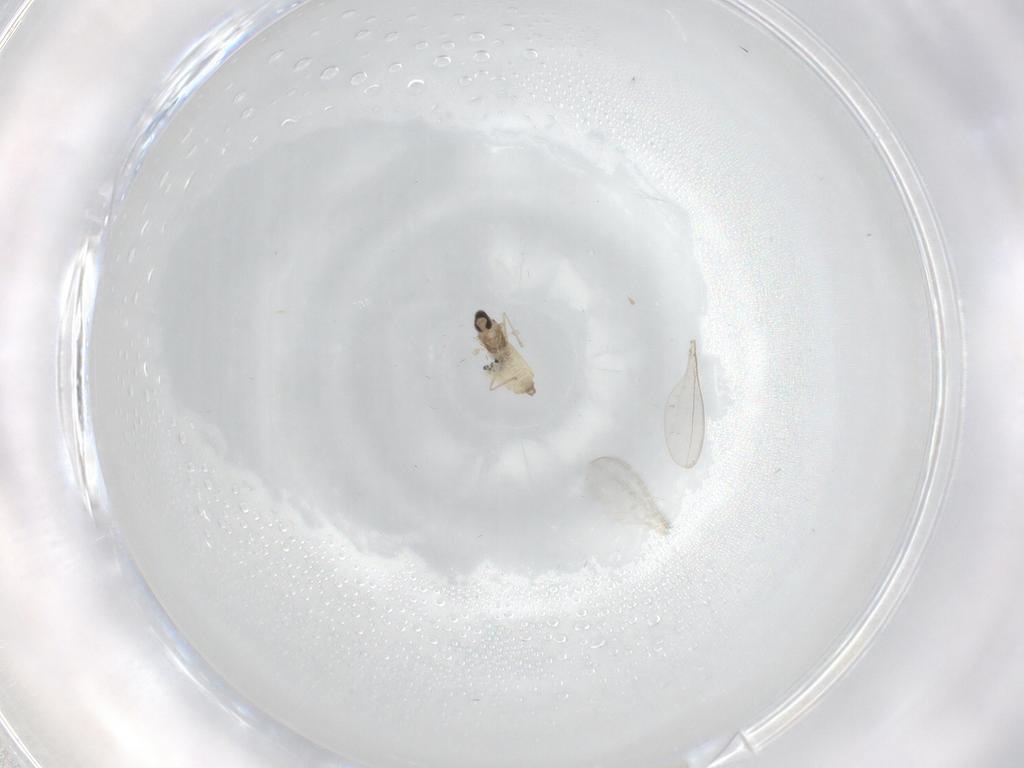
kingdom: Animalia
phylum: Arthropoda
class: Insecta
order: Diptera
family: Cecidomyiidae
